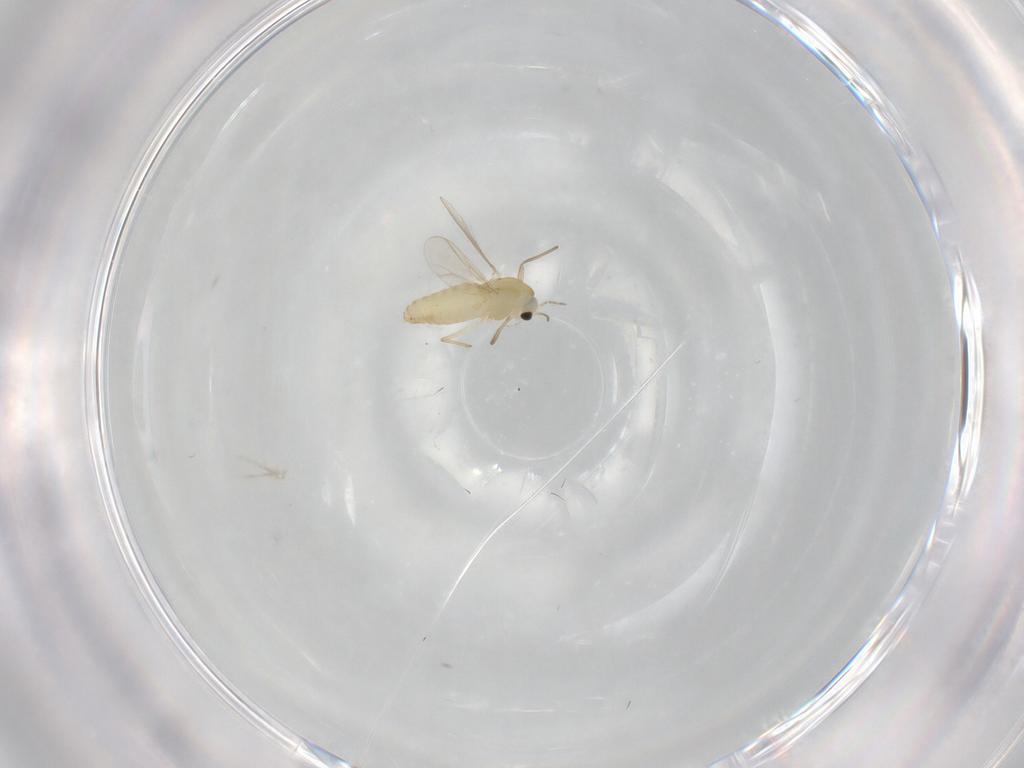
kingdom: Animalia
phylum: Arthropoda
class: Insecta
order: Diptera
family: Chironomidae
